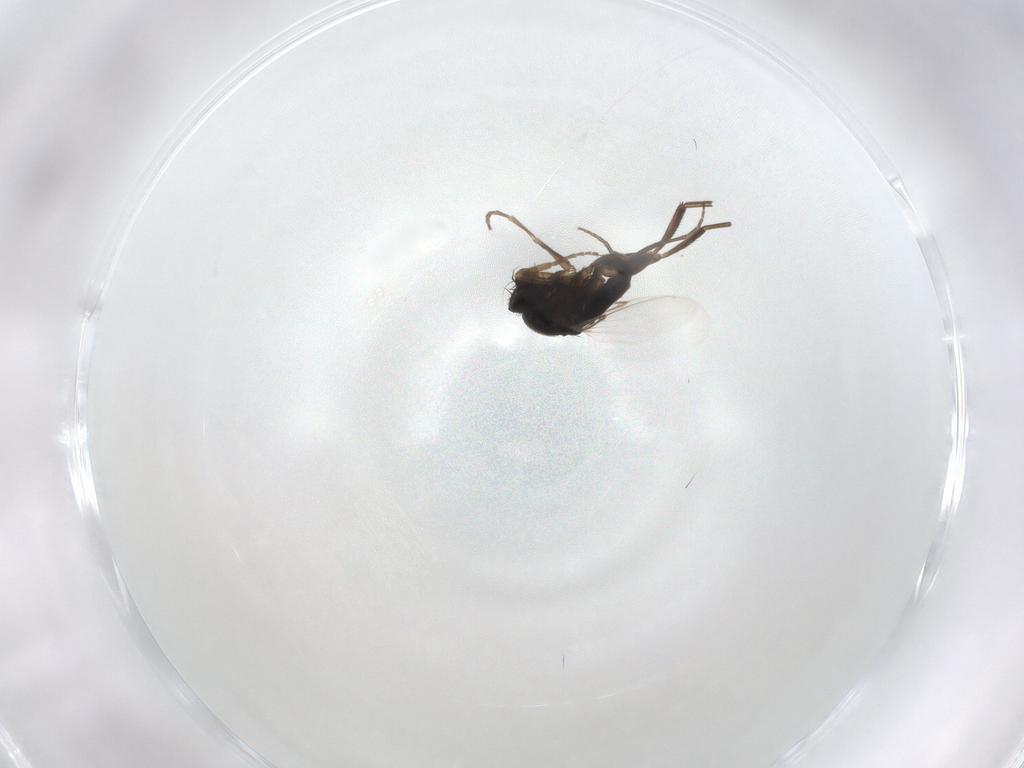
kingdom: Animalia
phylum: Arthropoda
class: Insecta
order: Diptera
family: Phoridae
